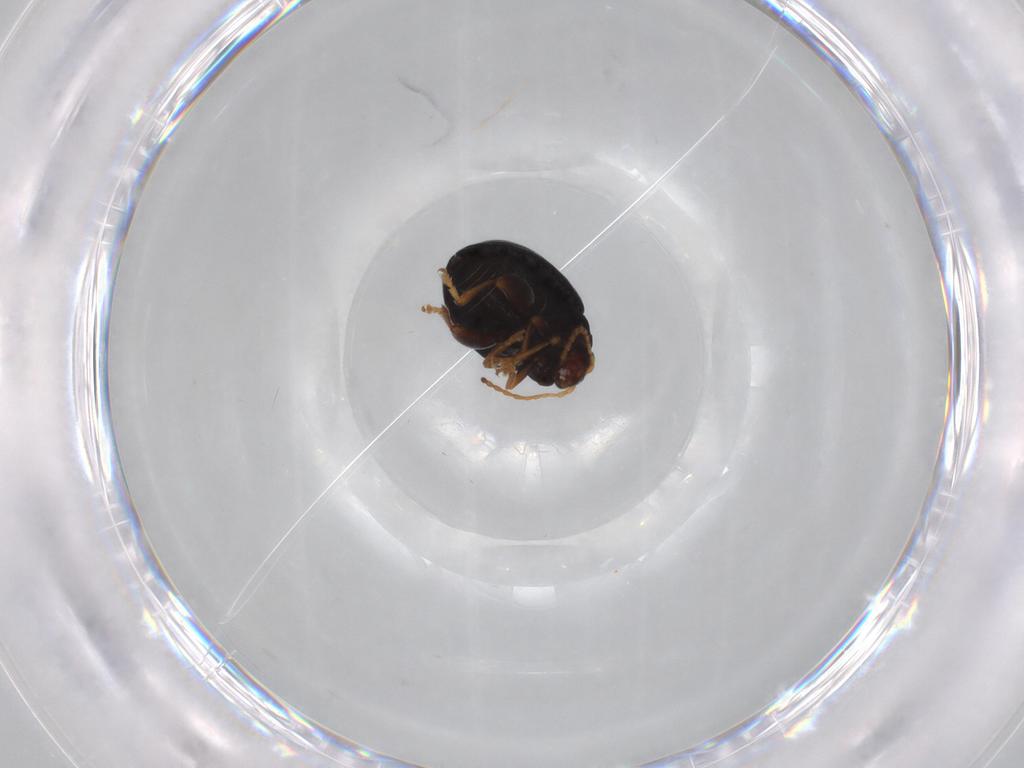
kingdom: Animalia
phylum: Arthropoda
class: Insecta
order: Coleoptera
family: Chrysomelidae
